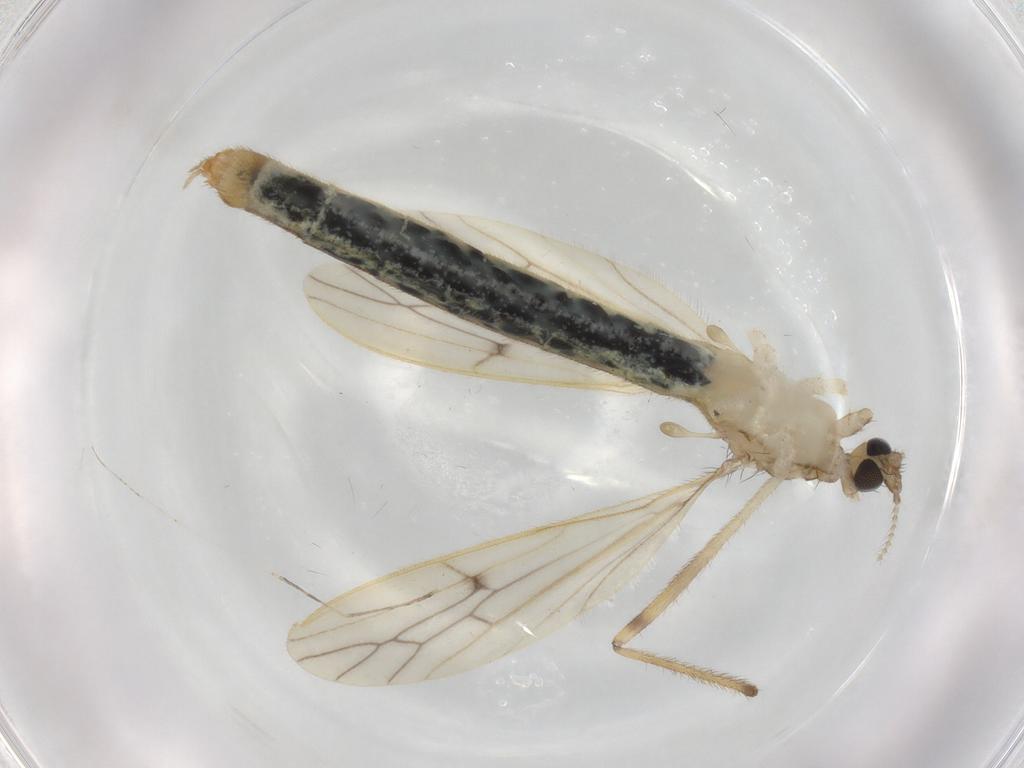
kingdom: Animalia
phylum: Arthropoda
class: Insecta
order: Diptera
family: Limoniidae
